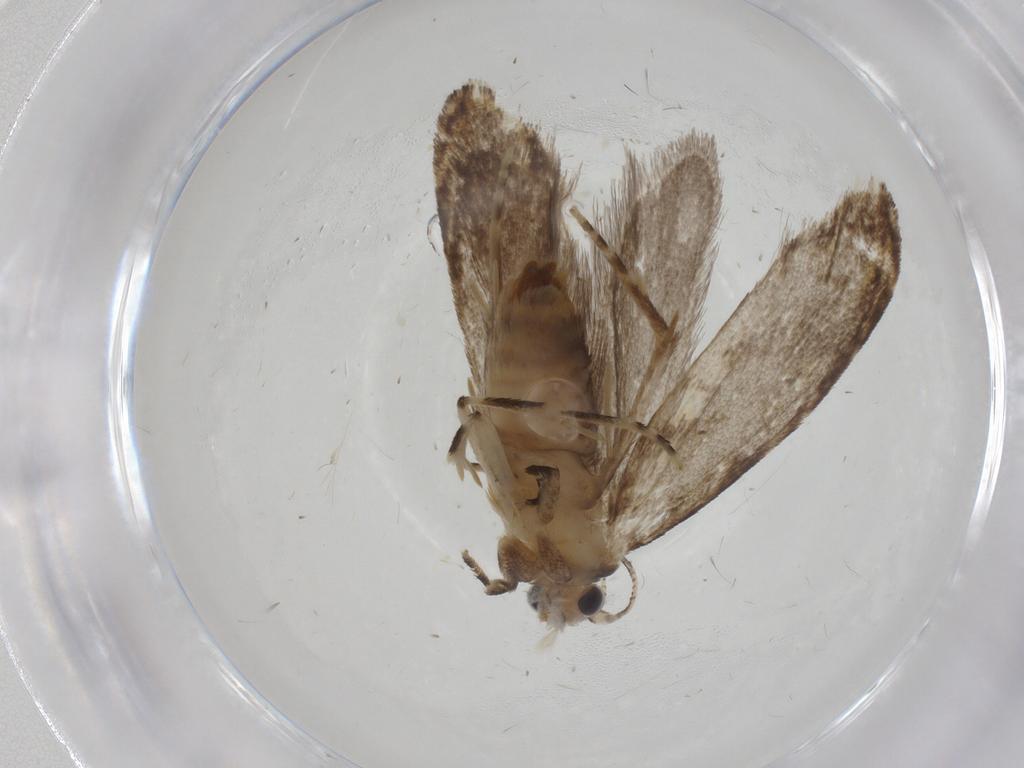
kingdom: Animalia
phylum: Arthropoda
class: Insecta
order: Lepidoptera
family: Tineidae
